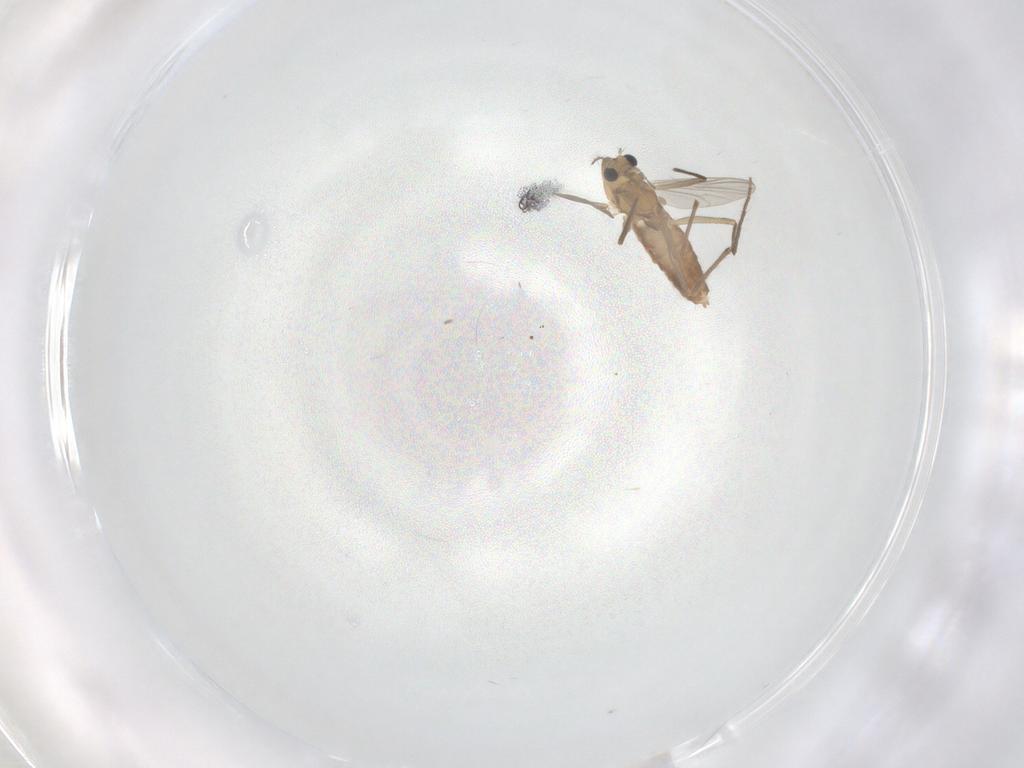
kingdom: Animalia
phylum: Arthropoda
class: Insecta
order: Diptera
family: Chironomidae
